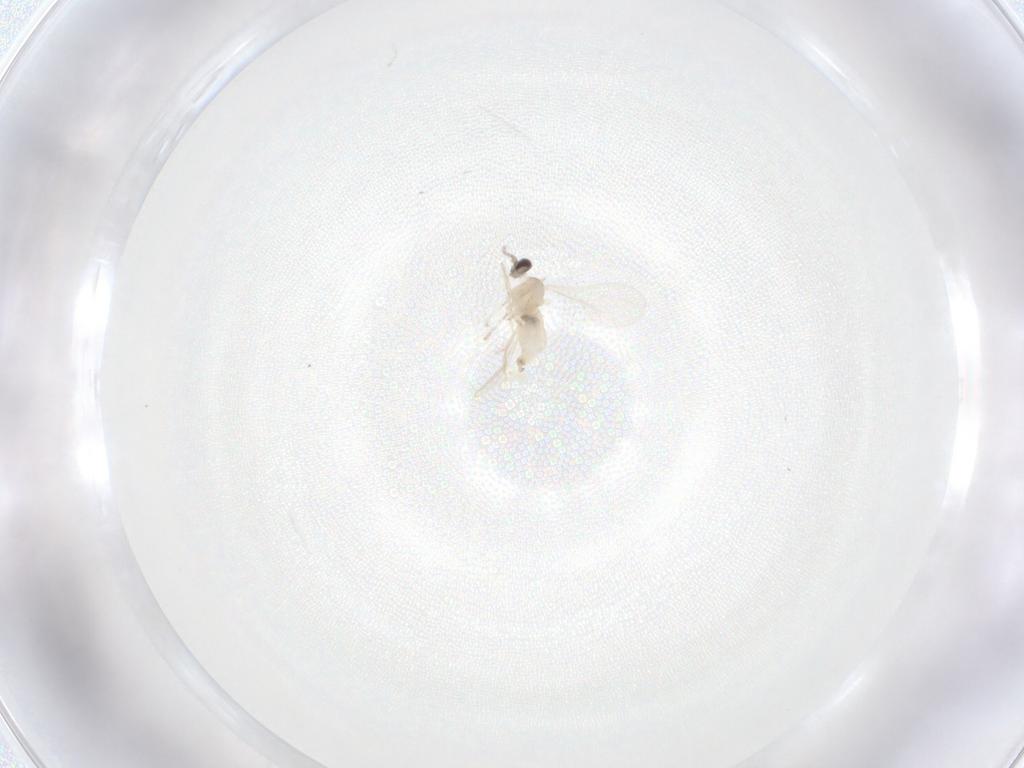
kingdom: Animalia
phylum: Arthropoda
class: Insecta
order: Diptera
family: Cecidomyiidae
